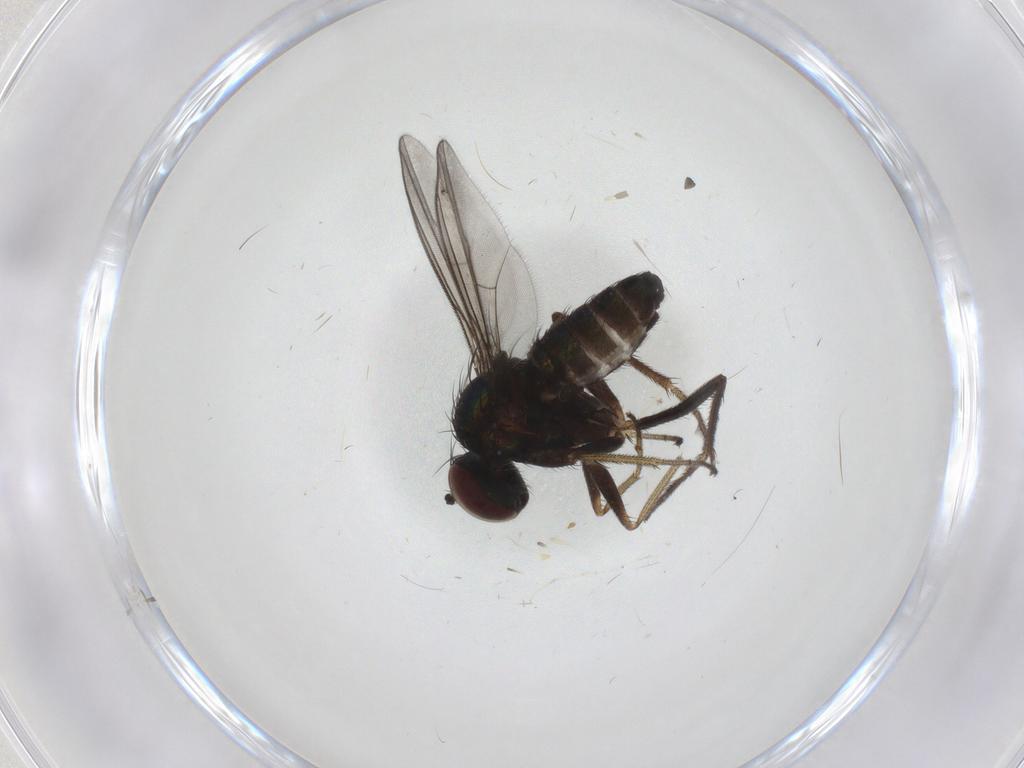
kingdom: Animalia
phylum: Arthropoda
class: Insecta
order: Diptera
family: Dolichopodidae
